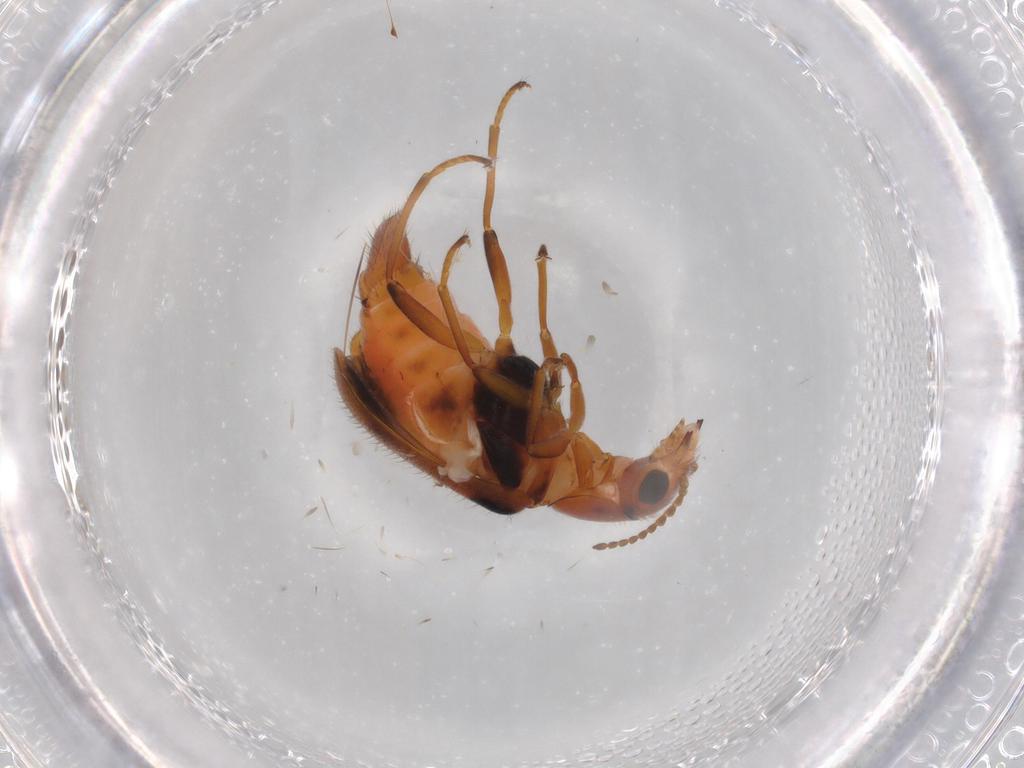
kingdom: Animalia
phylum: Arthropoda
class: Insecta
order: Coleoptera
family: Melyridae
